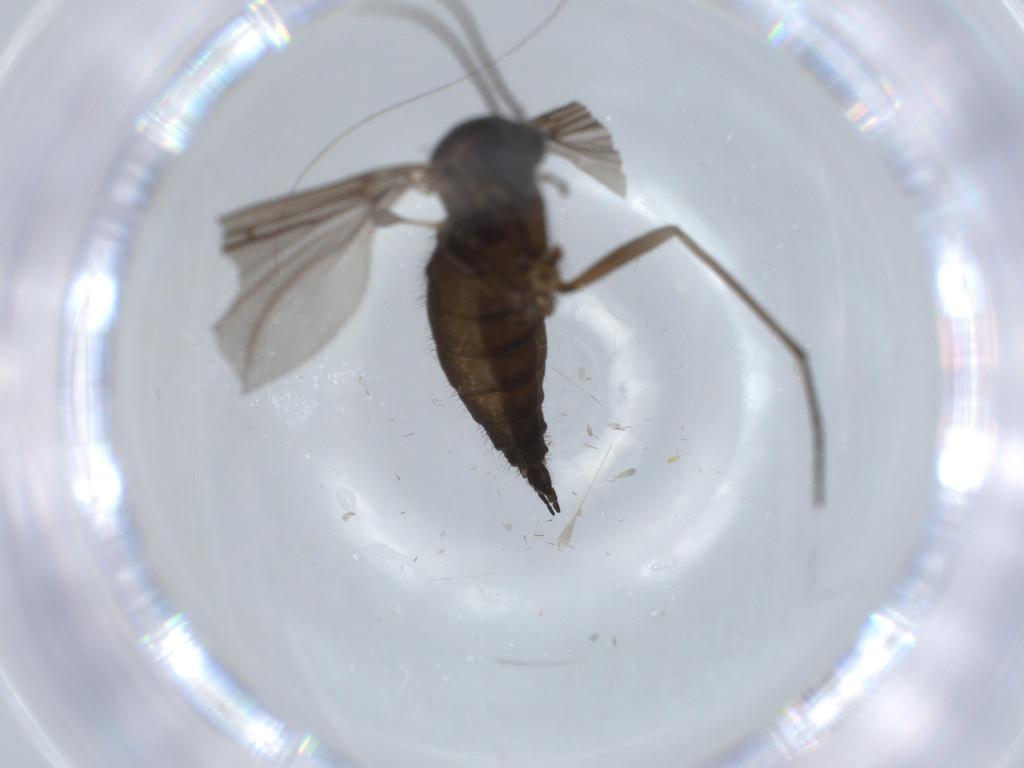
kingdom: Animalia
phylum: Arthropoda
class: Insecta
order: Diptera
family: Sciaridae
